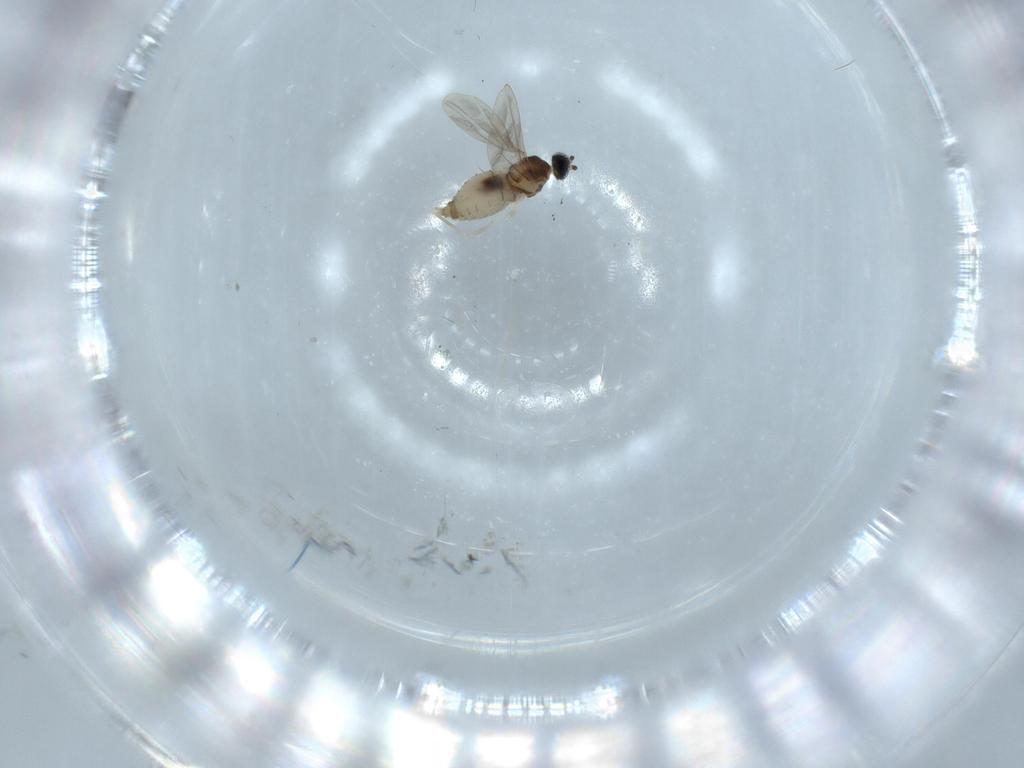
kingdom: Animalia
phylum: Arthropoda
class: Insecta
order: Diptera
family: Cecidomyiidae
